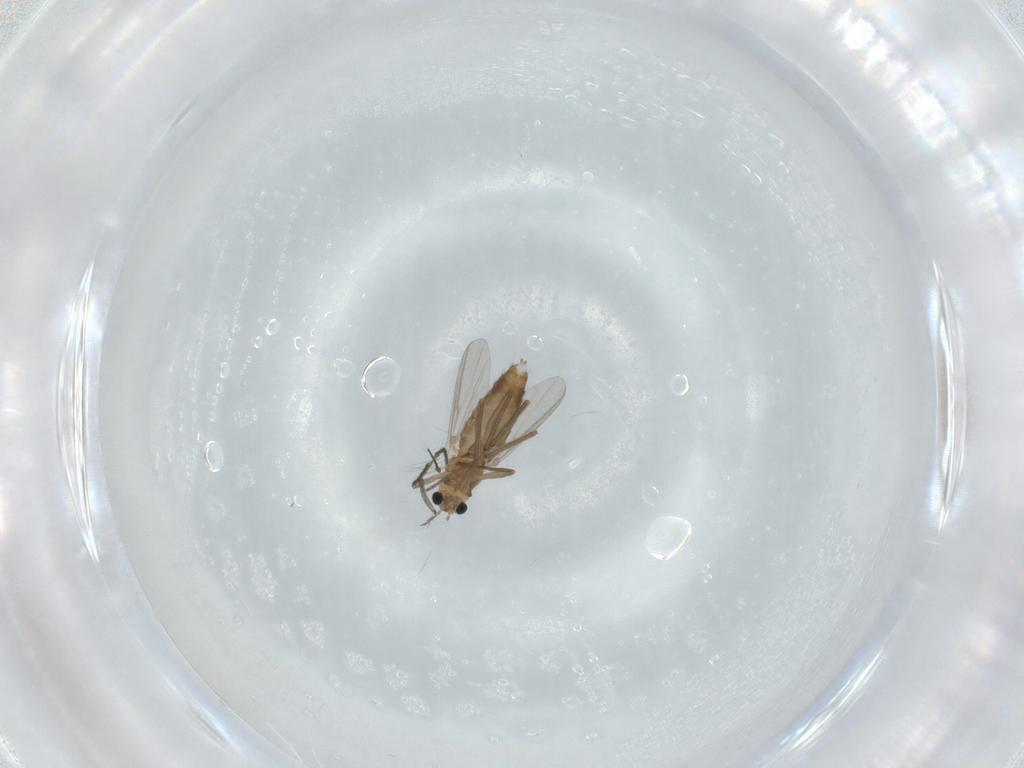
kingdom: Animalia
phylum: Arthropoda
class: Insecta
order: Diptera
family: Chironomidae
